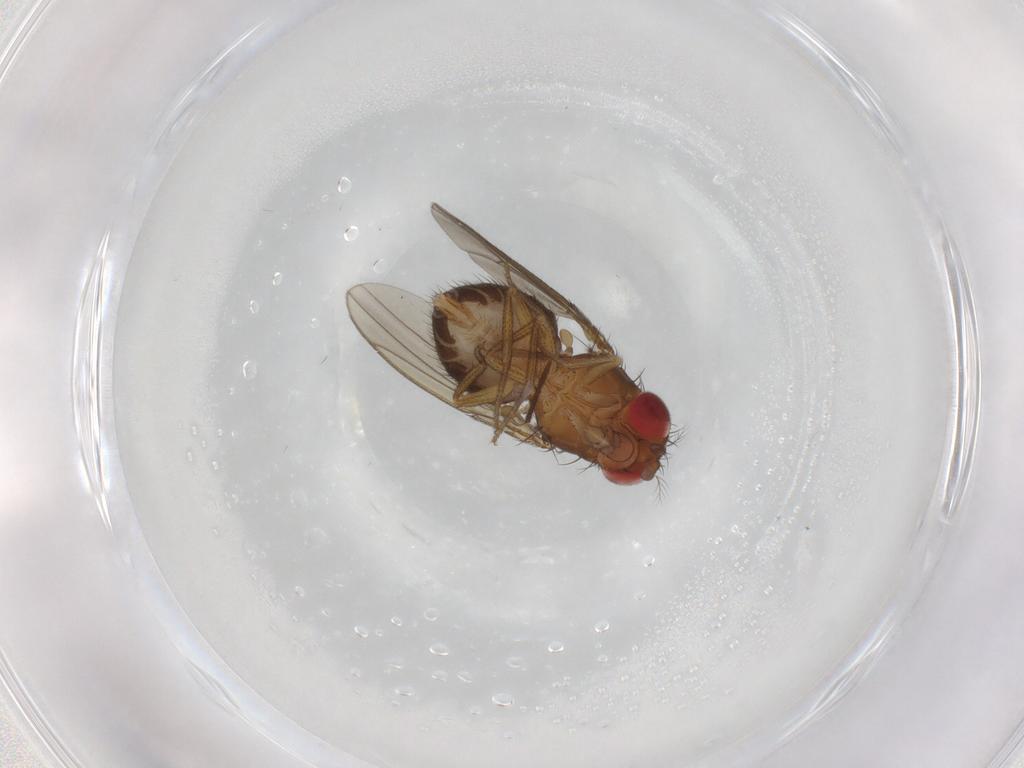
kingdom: Animalia
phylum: Arthropoda
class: Insecta
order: Diptera
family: Drosophilidae
